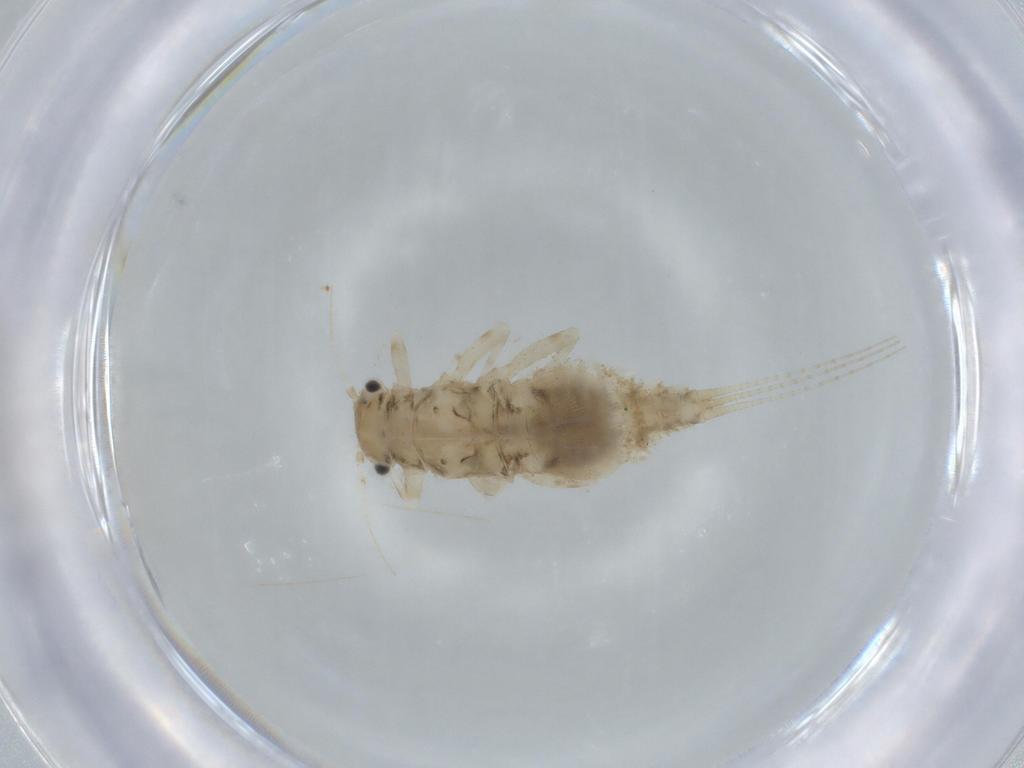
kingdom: Animalia
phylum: Arthropoda
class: Insecta
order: Ephemeroptera
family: Caenidae
